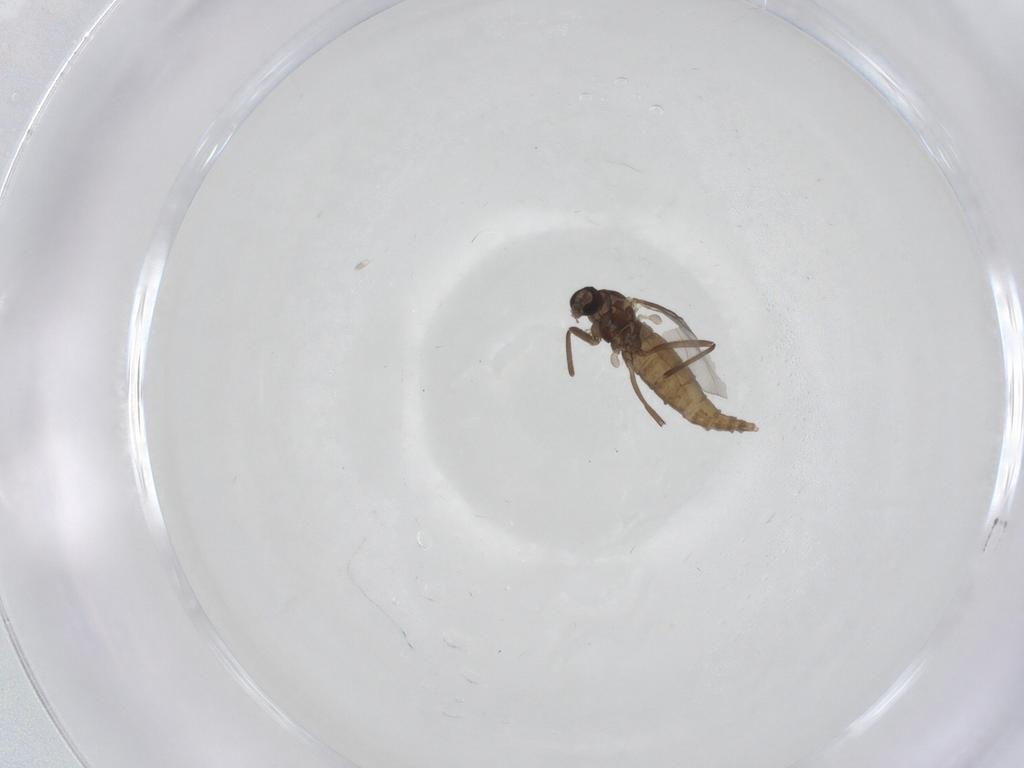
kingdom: Animalia
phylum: Arthropoda
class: Insecta
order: Diptera
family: Cecidomyiidae
